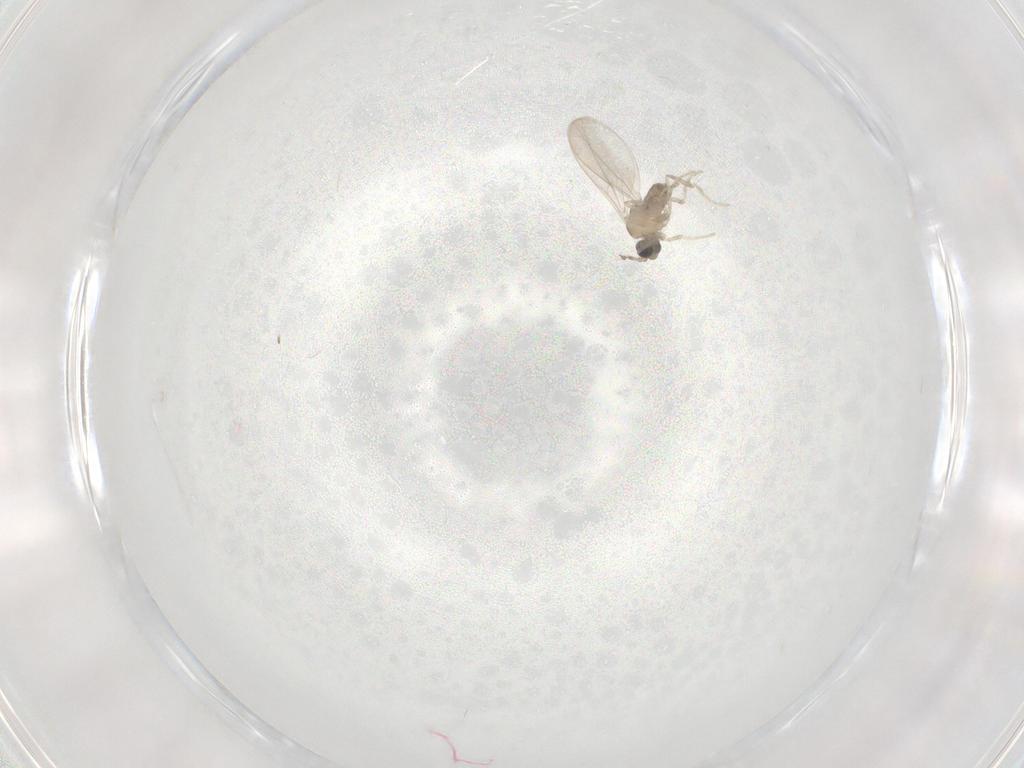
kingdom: Animalia
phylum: Arthropoda
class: Insecta
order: Diptera
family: Cecidomyiidae
